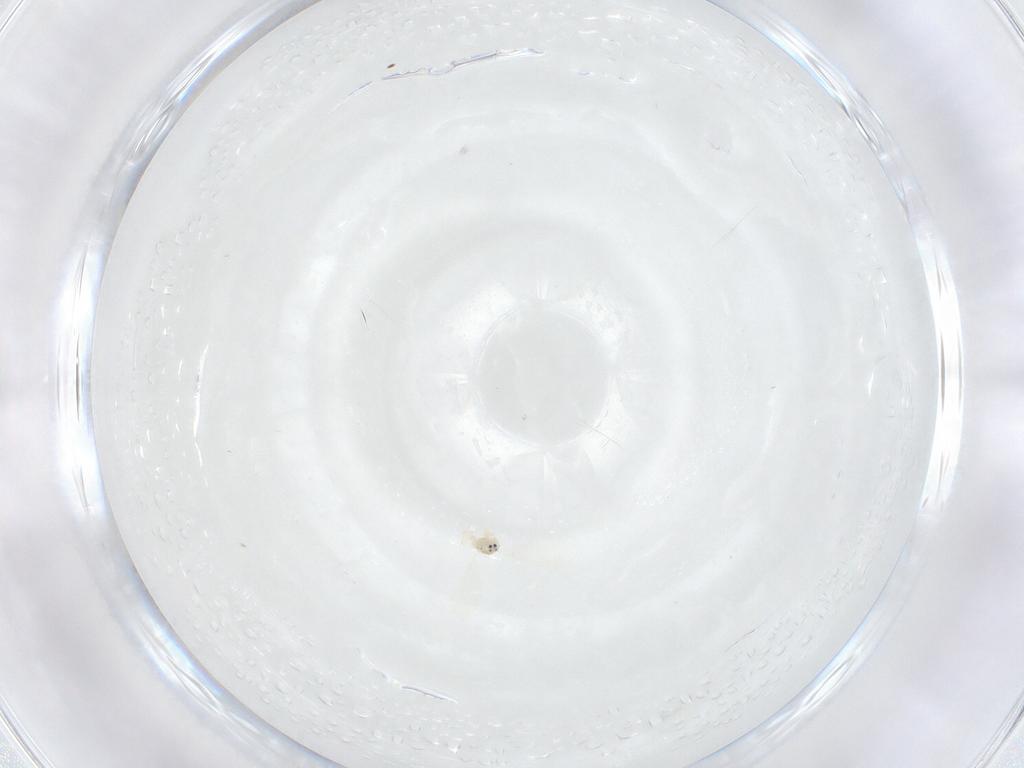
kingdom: Animalia
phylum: Arthropoda
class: Insecta
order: Hemiptera
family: Diaspididae
